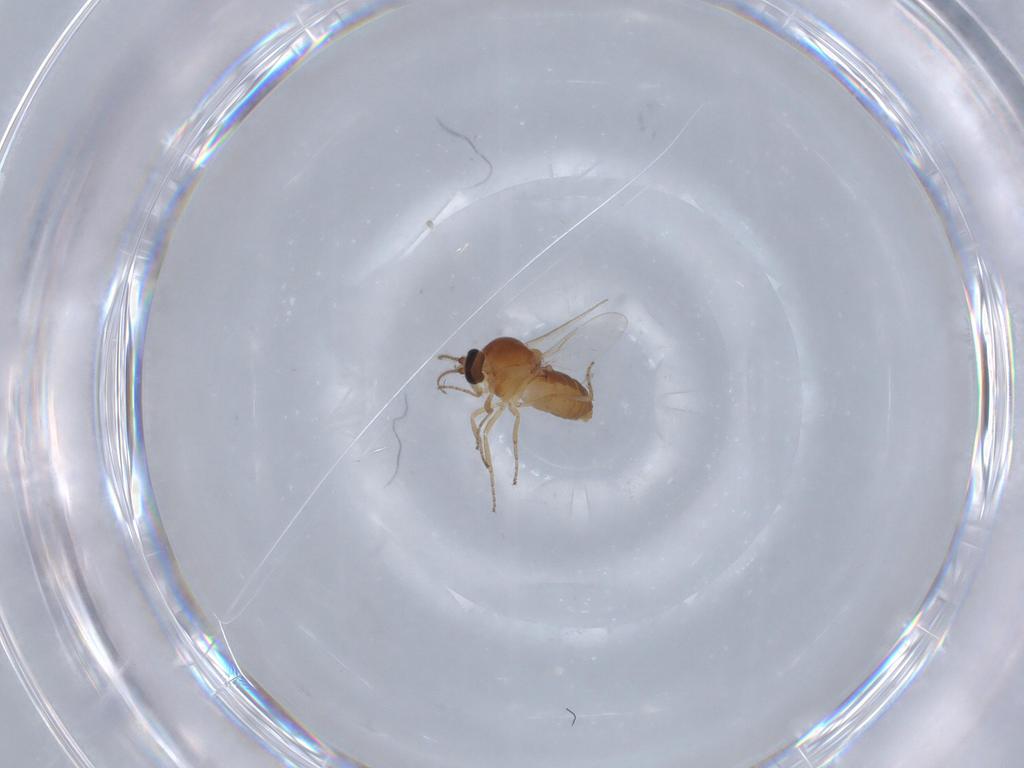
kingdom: Animalia
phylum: Arthropoda
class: Insecta
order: Diptera
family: Ceratopogonidae
